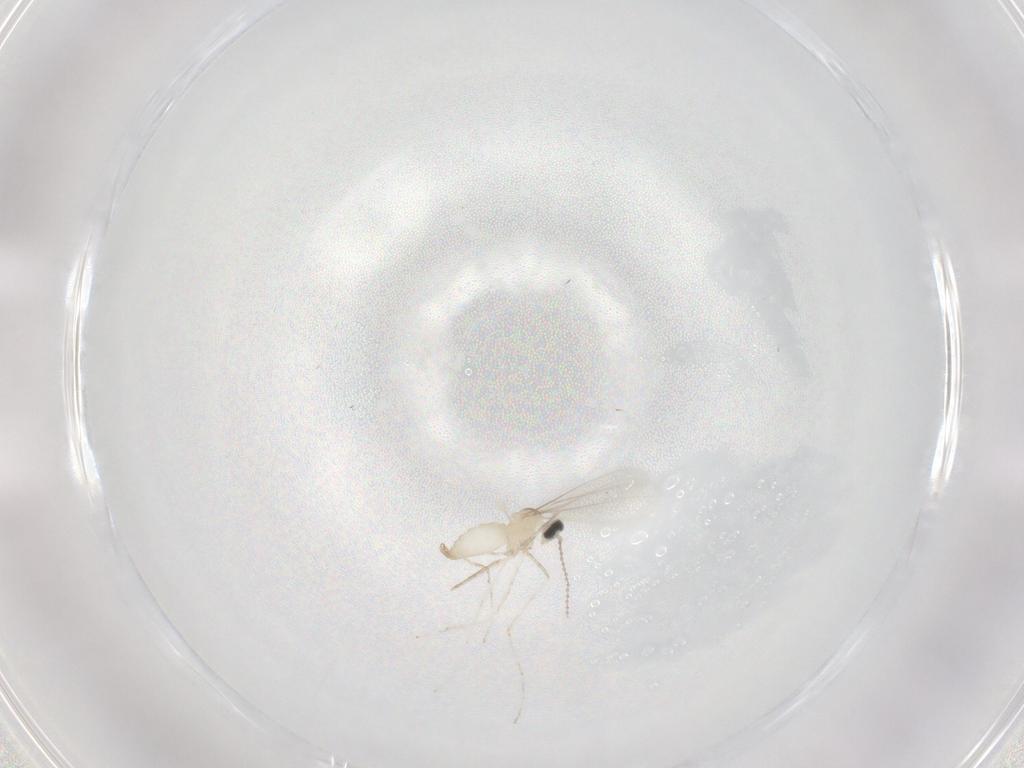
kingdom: Animalia
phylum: Arthropoda
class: Insecta
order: Diptera
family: Cecidomyiidae
